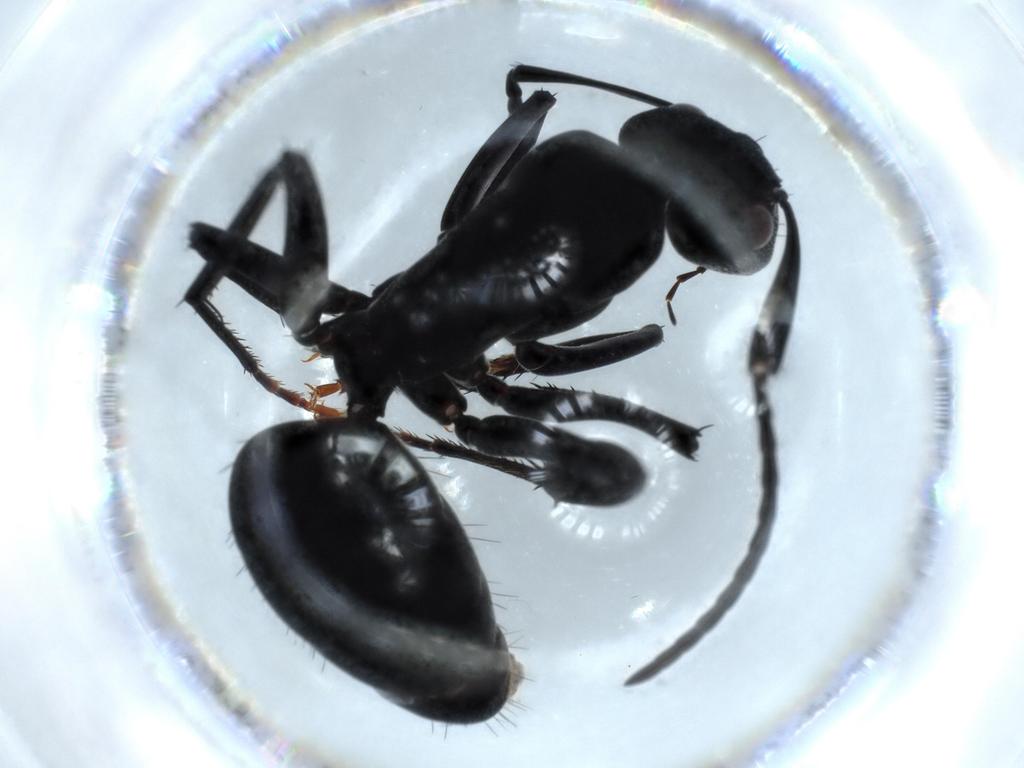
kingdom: Animalia
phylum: Arthropoda
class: Insecta
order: Hymenoptera
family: Formicidae
